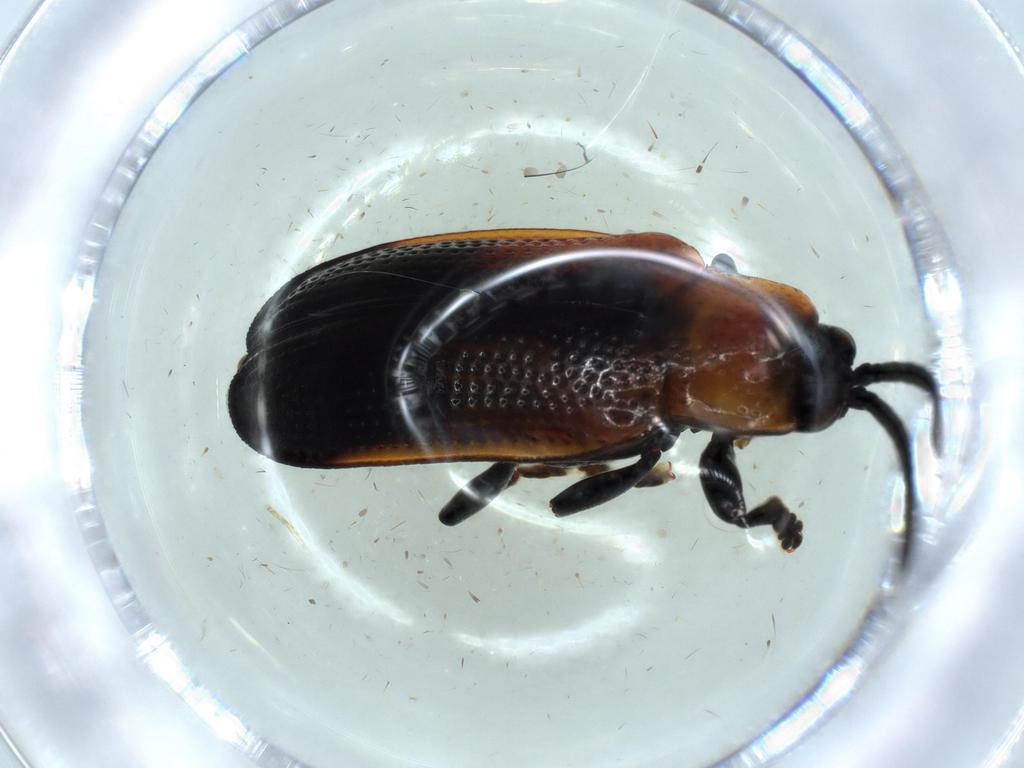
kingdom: Animalia
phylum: Arthropoda
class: Insecta
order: Coleoptera
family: Chrysomelidae
